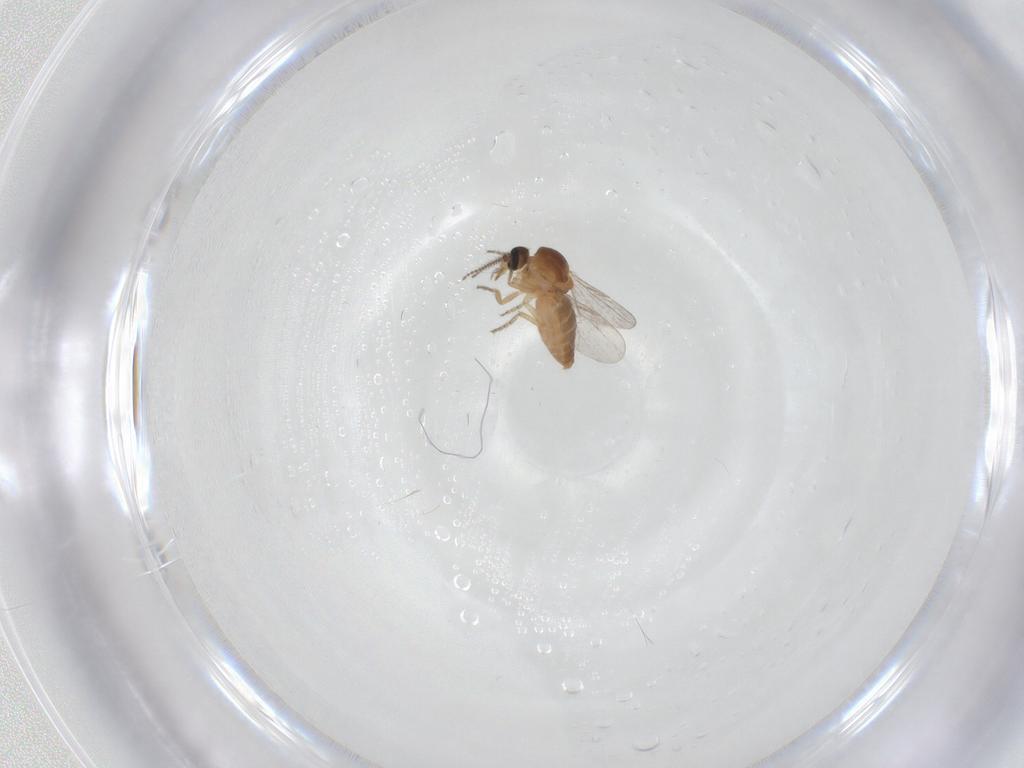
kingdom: Animalia
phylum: Arthropoda
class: Insecta
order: Diptera
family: Ceratopogonidae
